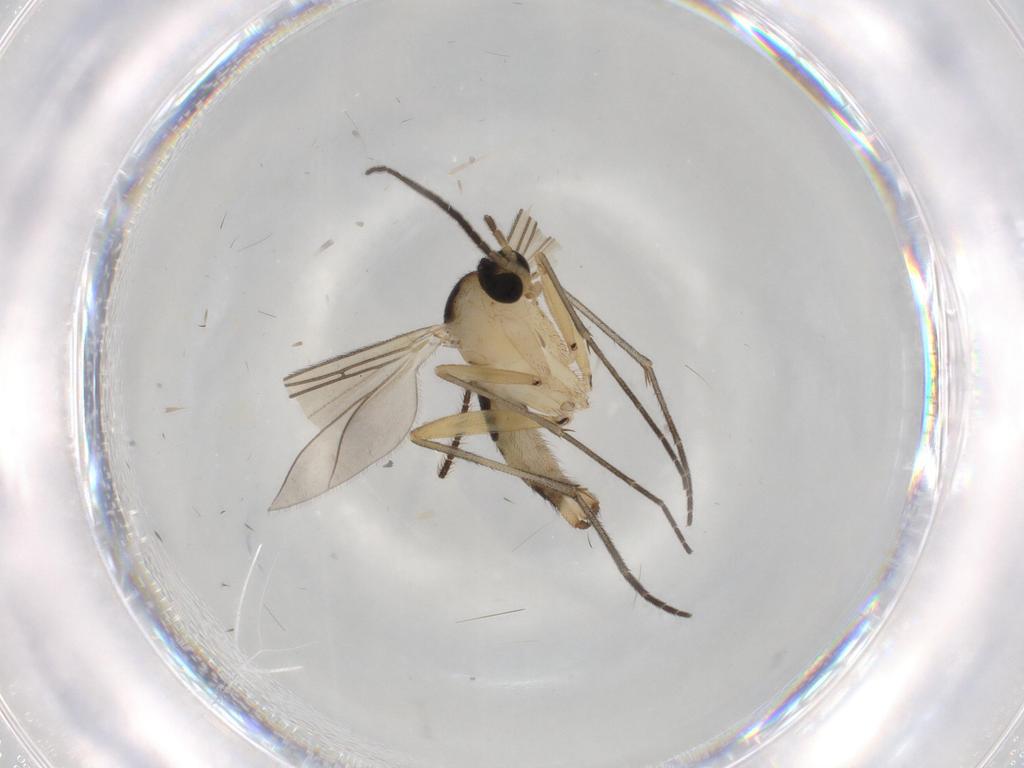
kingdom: Animalia
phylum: Arthropoda
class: Insecta
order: Diptera
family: Sciaridae
